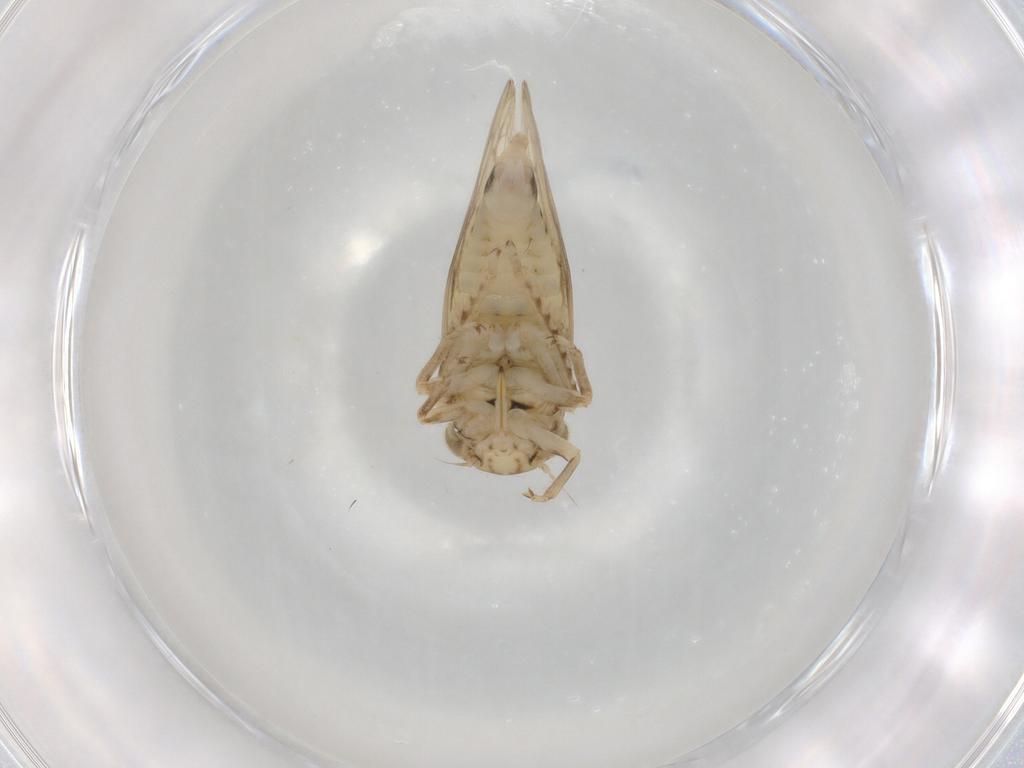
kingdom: Animalia
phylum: Arthropoda
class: Insecta
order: Hemiptera
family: Cicadellidae
